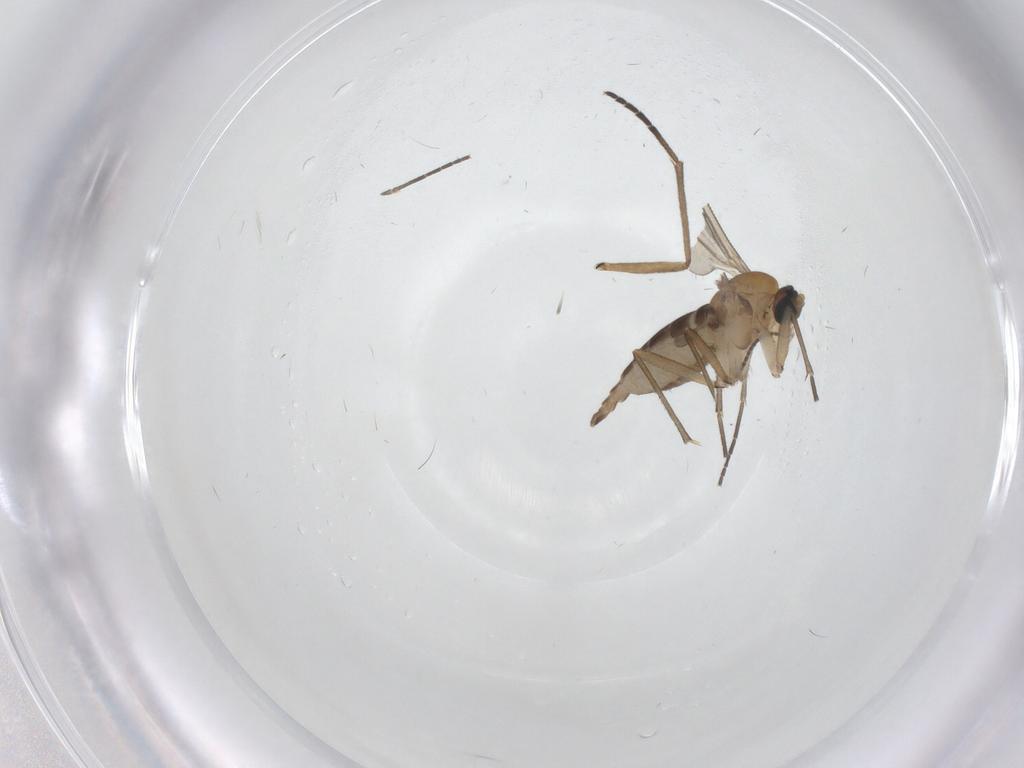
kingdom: Animalia
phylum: Arthropoda
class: Insecta
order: Diptera
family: Sciaridae
